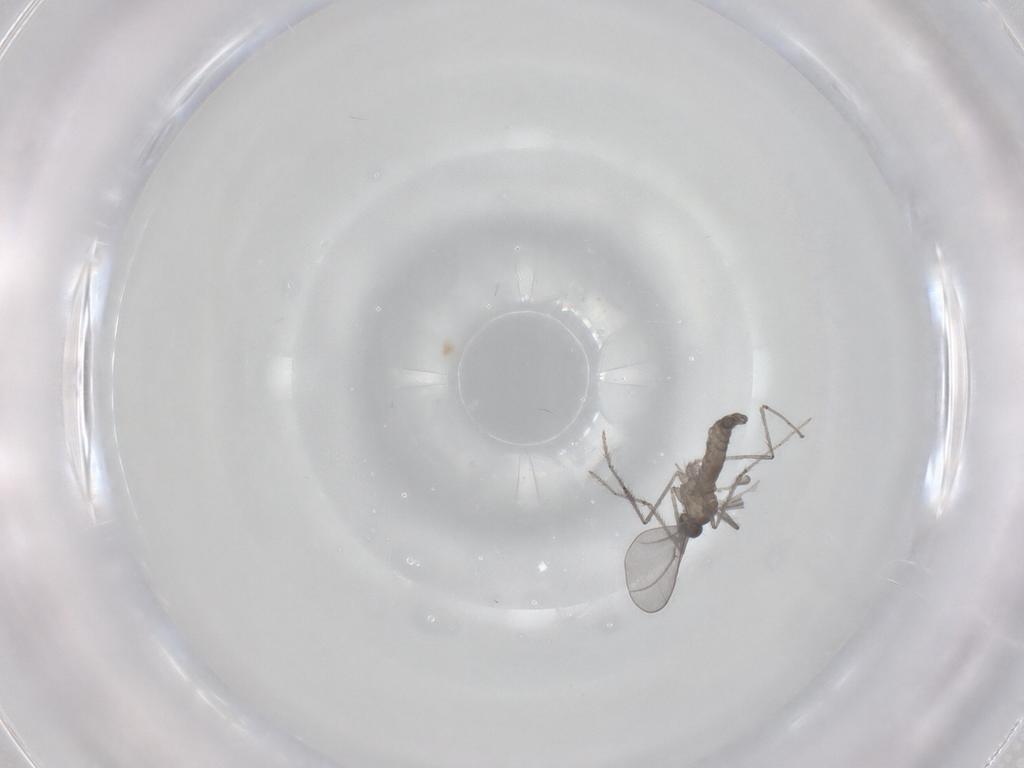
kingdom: Animalia
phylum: Arthropoda
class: Insecta
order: Diptera
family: Cecidomyiidae
